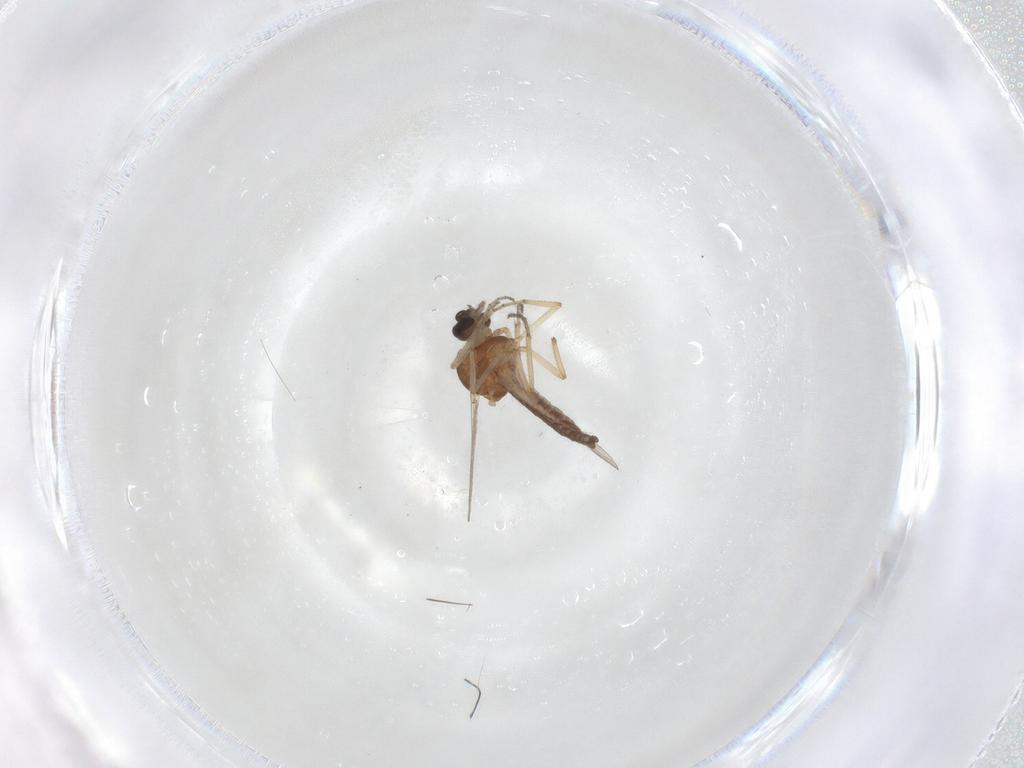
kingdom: Animalia
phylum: Arthropoda
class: Insecta
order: Diptera
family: Ceratopogonidae
